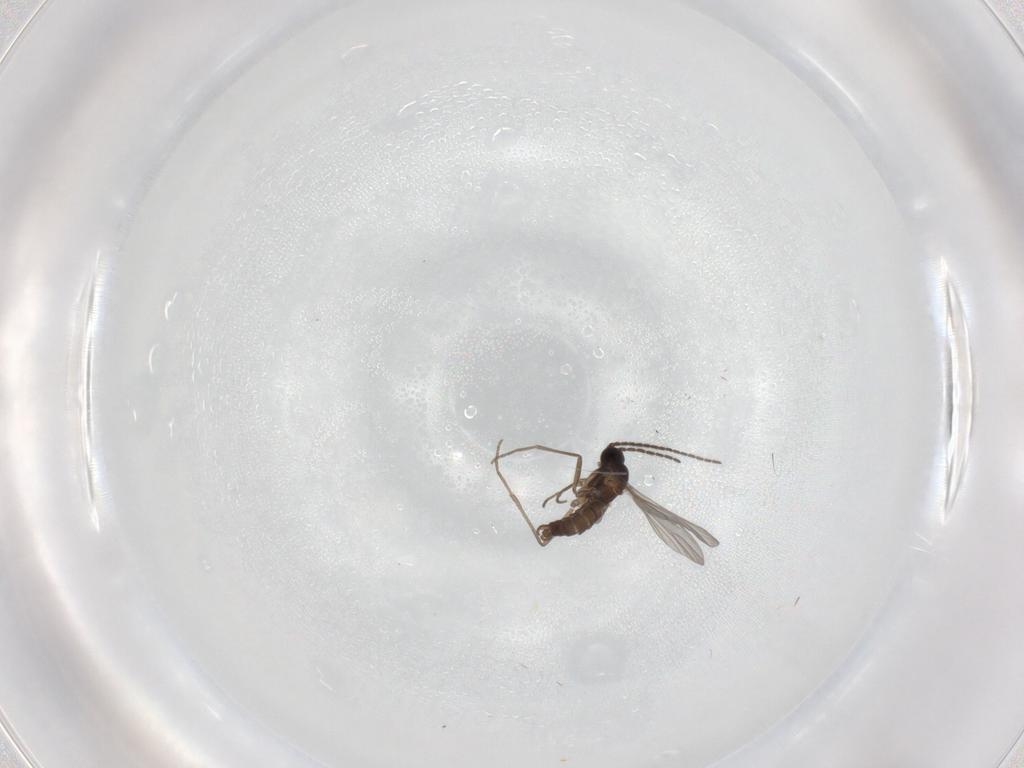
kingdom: Animalia
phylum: Arthropoda
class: Insecta
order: Diptera
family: Sciaridae
